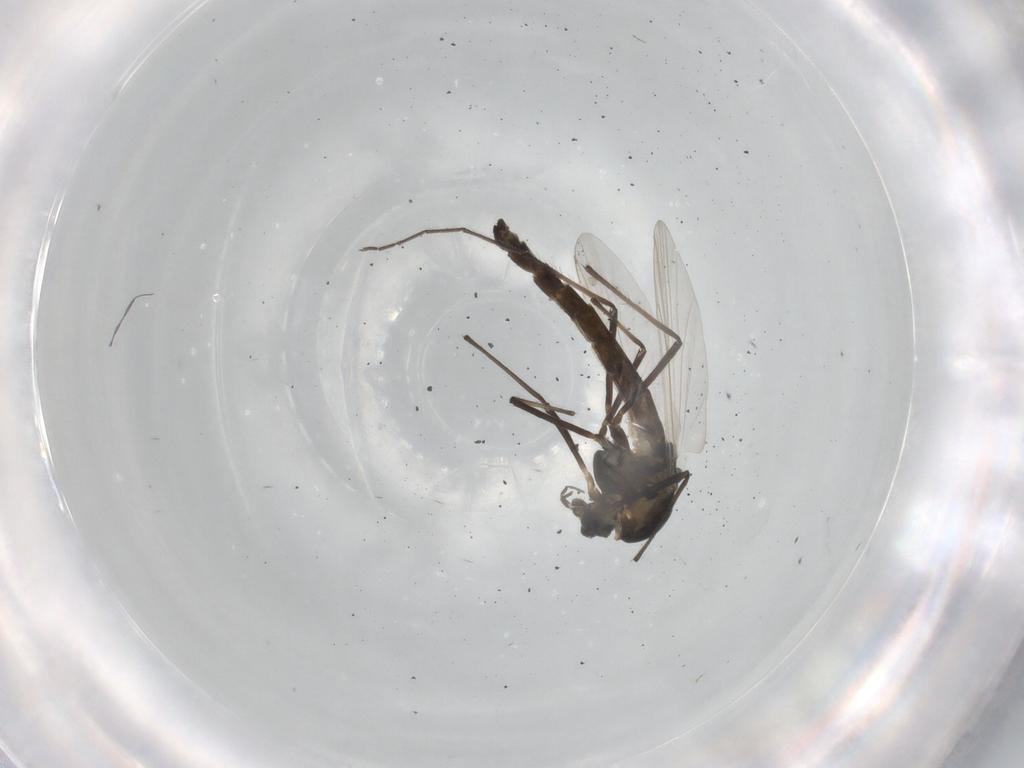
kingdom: Animalia
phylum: Arthropoda
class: Insecta
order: Diptera
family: Chironomidae
